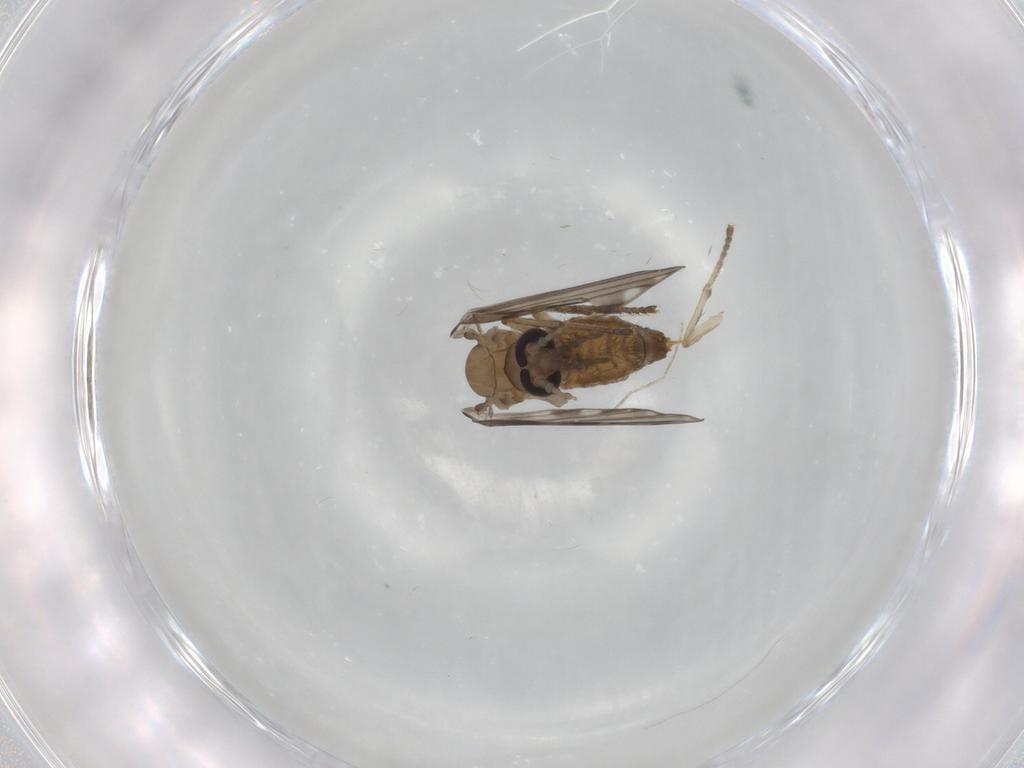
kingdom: Animalia
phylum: Arthropoda
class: Insecta
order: Diptera
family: Psychodidae
